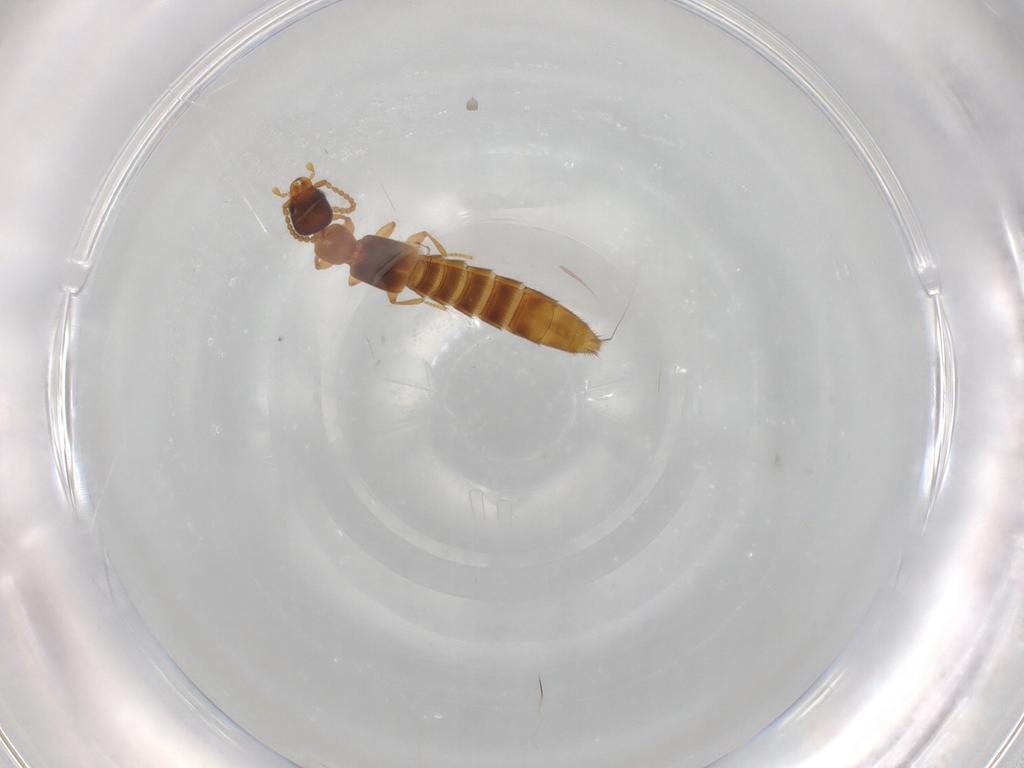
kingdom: Animalia
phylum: Arthropoda
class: Insecta
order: Coleoptera
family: Staphylinidae
